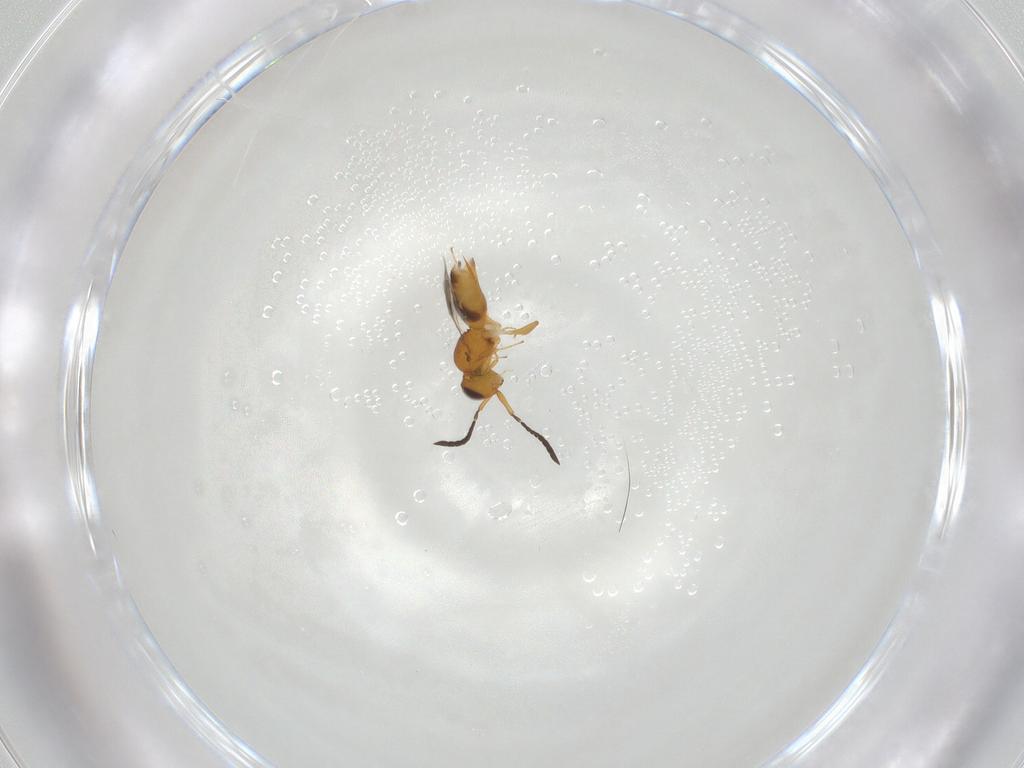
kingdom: Animalia
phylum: Arthropoda
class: Insecta
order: Hymenoptera
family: Ceraphronidae
